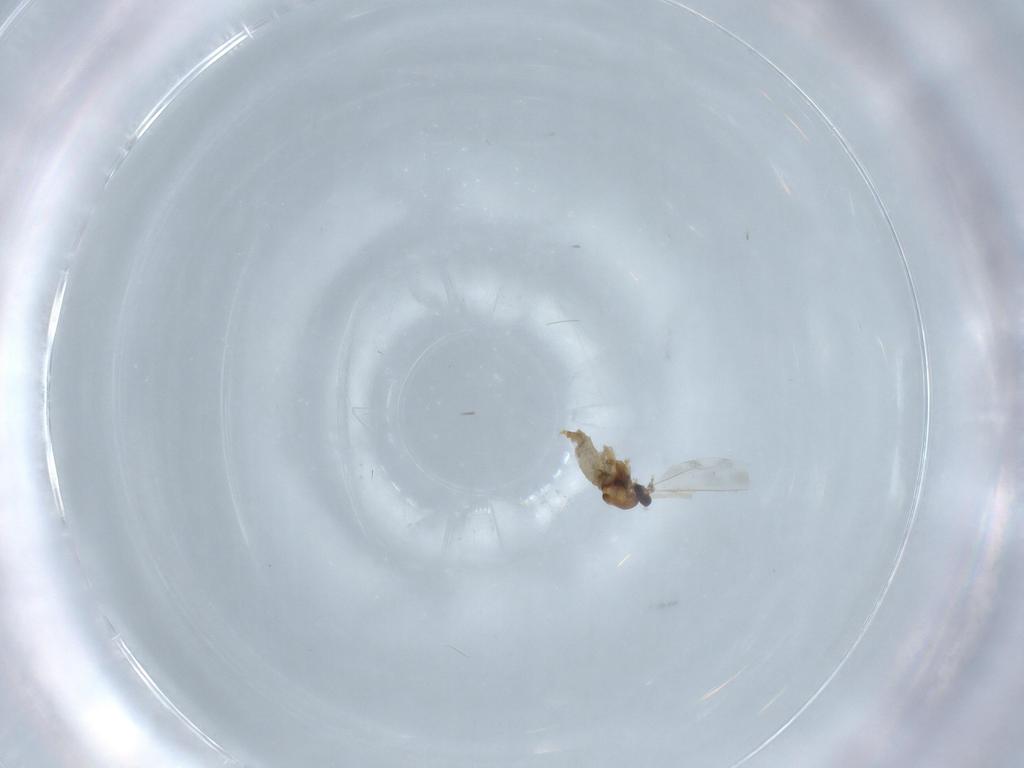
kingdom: Animalia
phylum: Arthropoda
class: Insecta
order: Diptera
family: Cecidomyiidae
